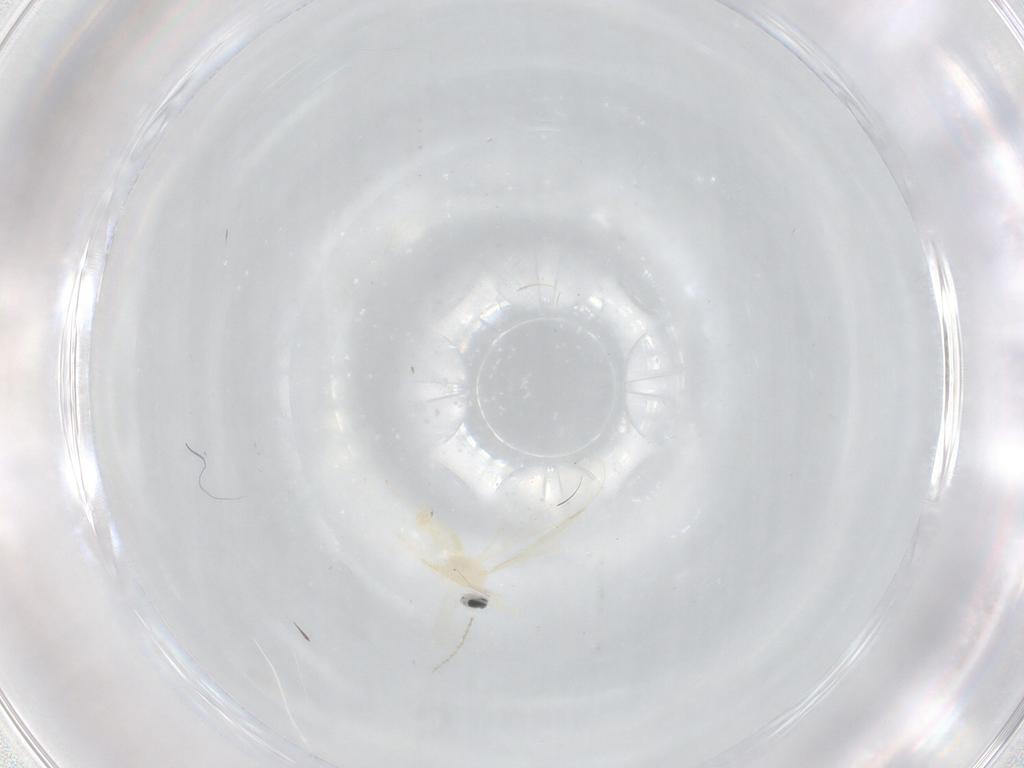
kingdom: Animalia
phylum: Arthropoda
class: Insecta
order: Diptera
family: Cecidomyiidae
